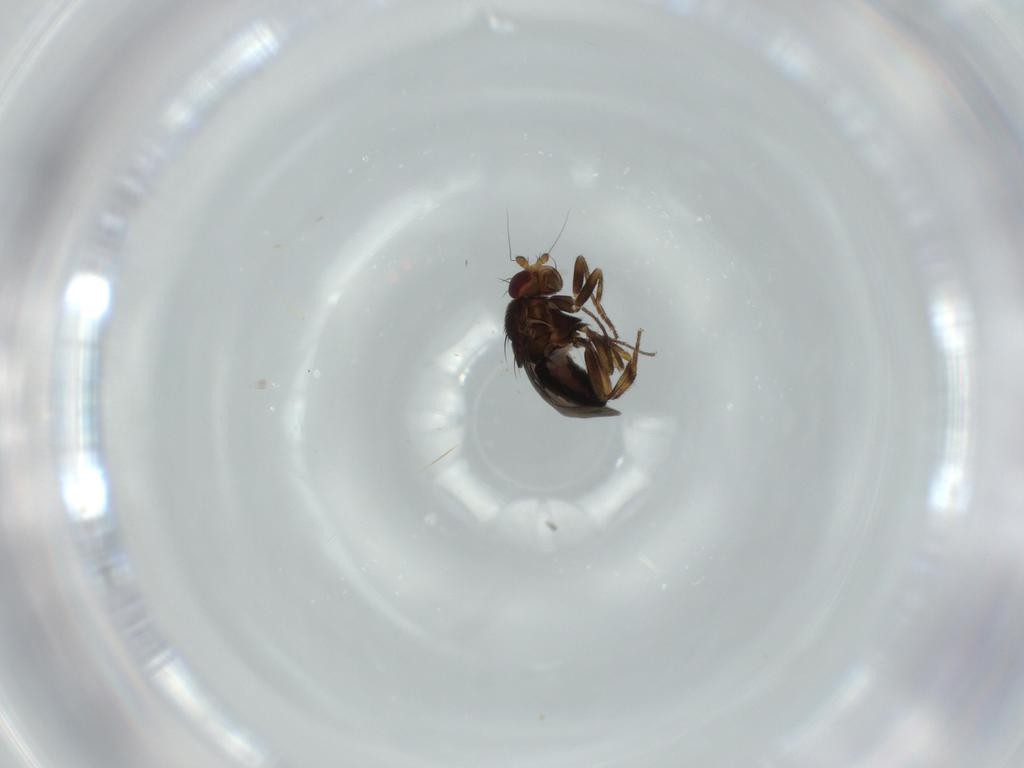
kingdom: Animalia
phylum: Arthropoda
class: Insecta
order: Diptera
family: Sphaeroceridae
